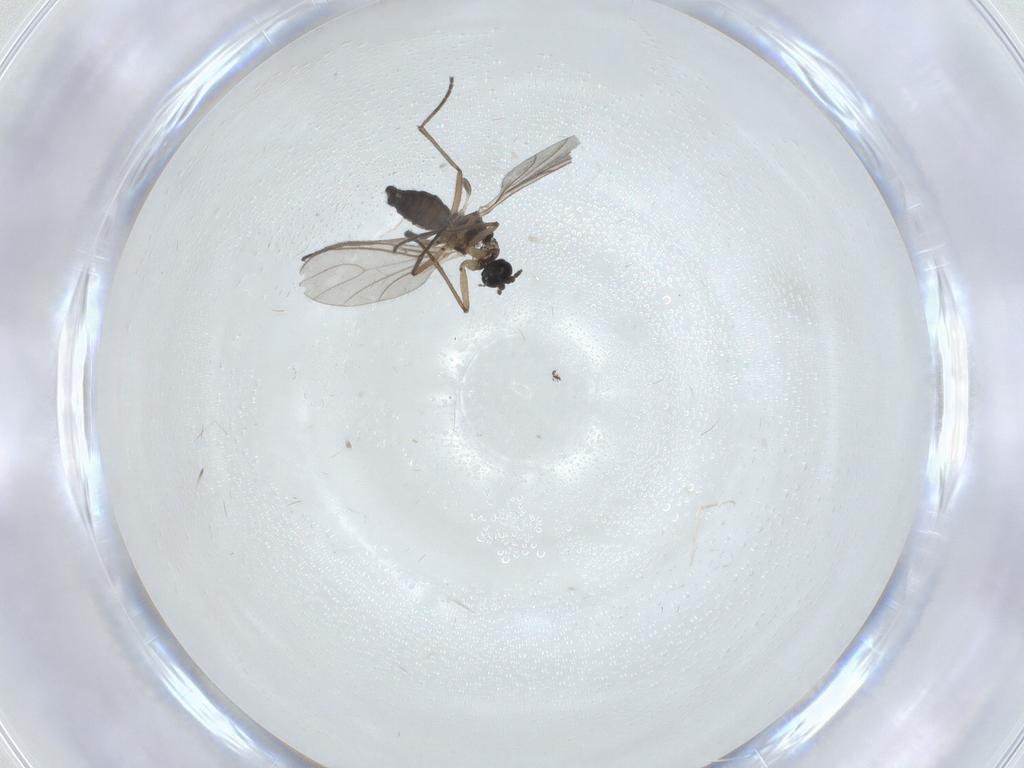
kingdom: Animalia
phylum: Arthropoda
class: Insecta
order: Diptera
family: Sciaridae
